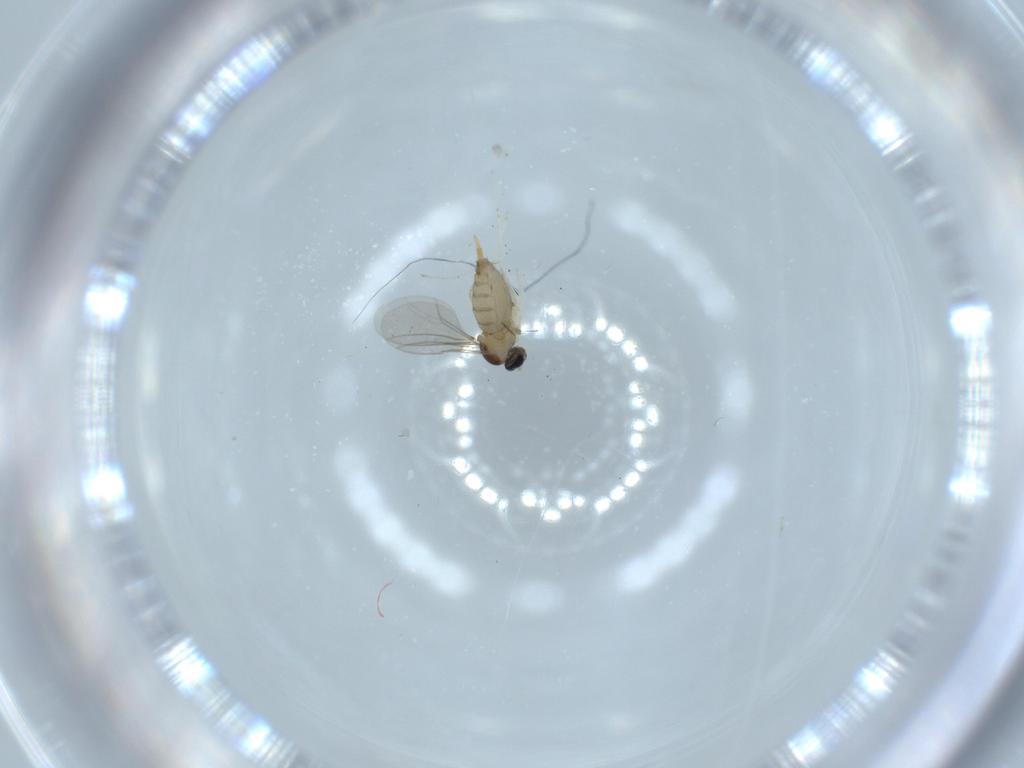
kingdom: Animalia
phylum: Arthropoda
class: Insecta
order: Diptera
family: Cecidomyiidae
